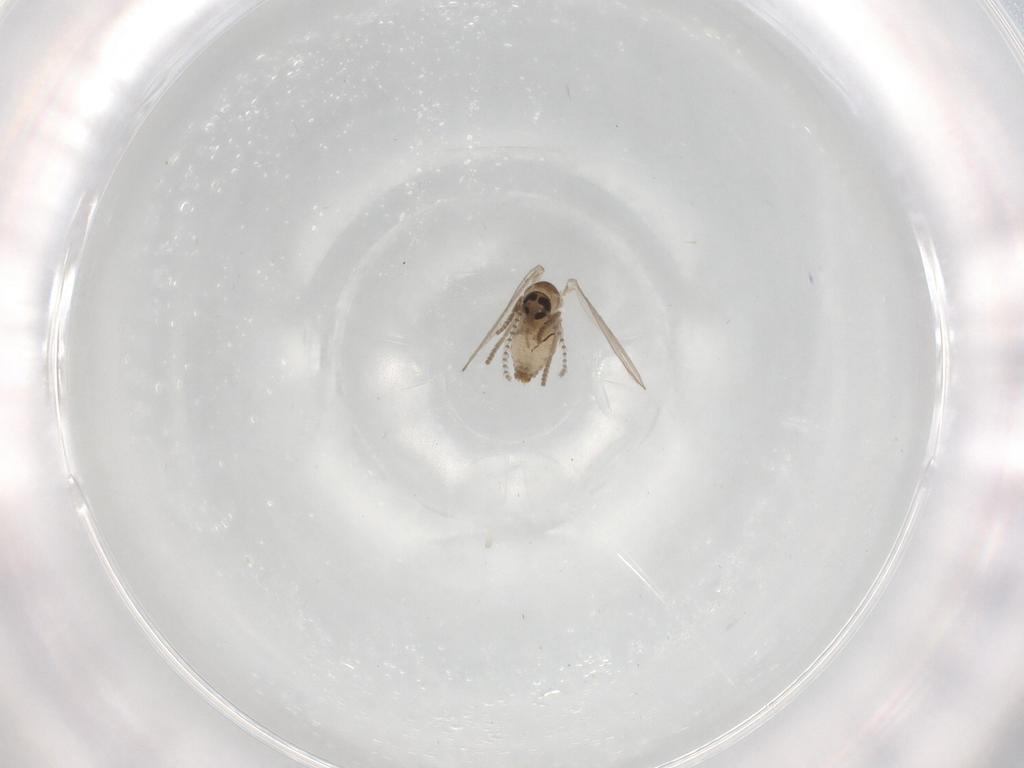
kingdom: Animalia
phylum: Arthropoda
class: Insecta
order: Diptera
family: Psychodidae
